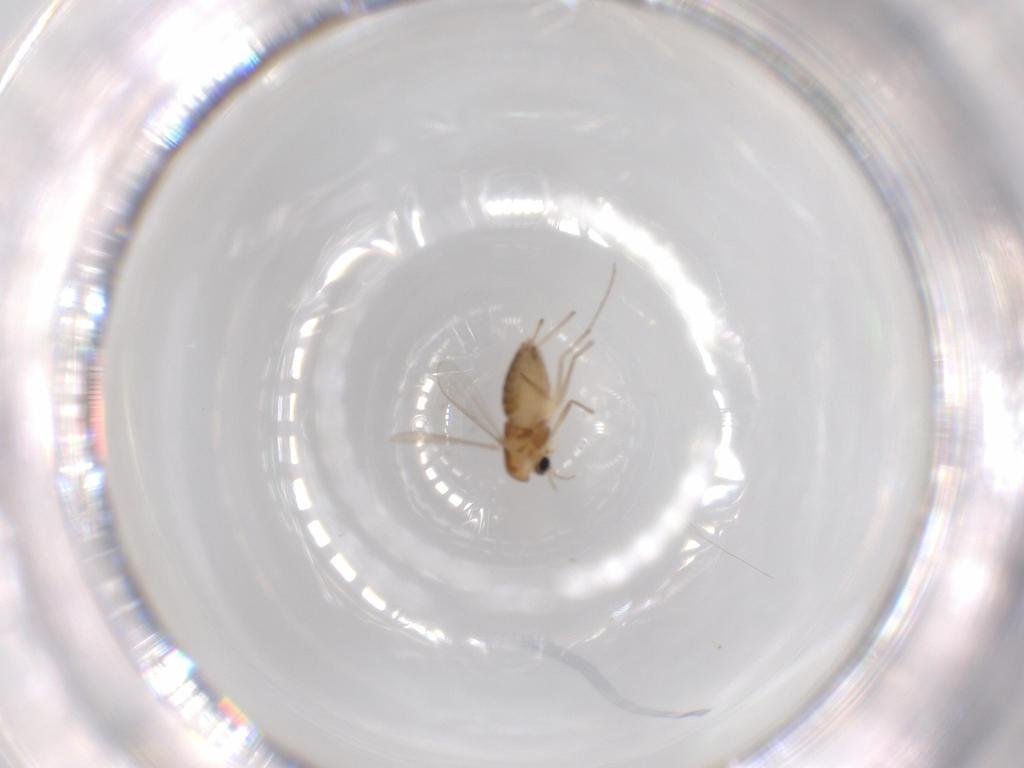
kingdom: Animalia
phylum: Arthropoda
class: Insecta
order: Diptera
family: Chironomidae
